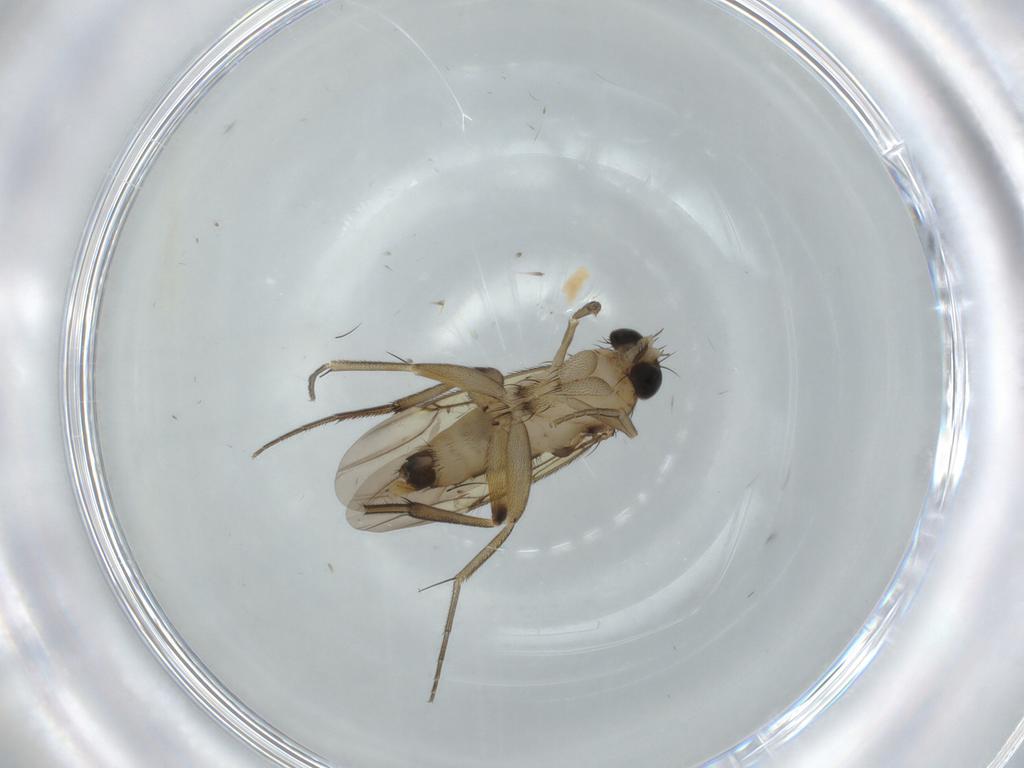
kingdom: Animalia
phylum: Arthropoda
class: Insecta
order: Diptera
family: Phoridae
